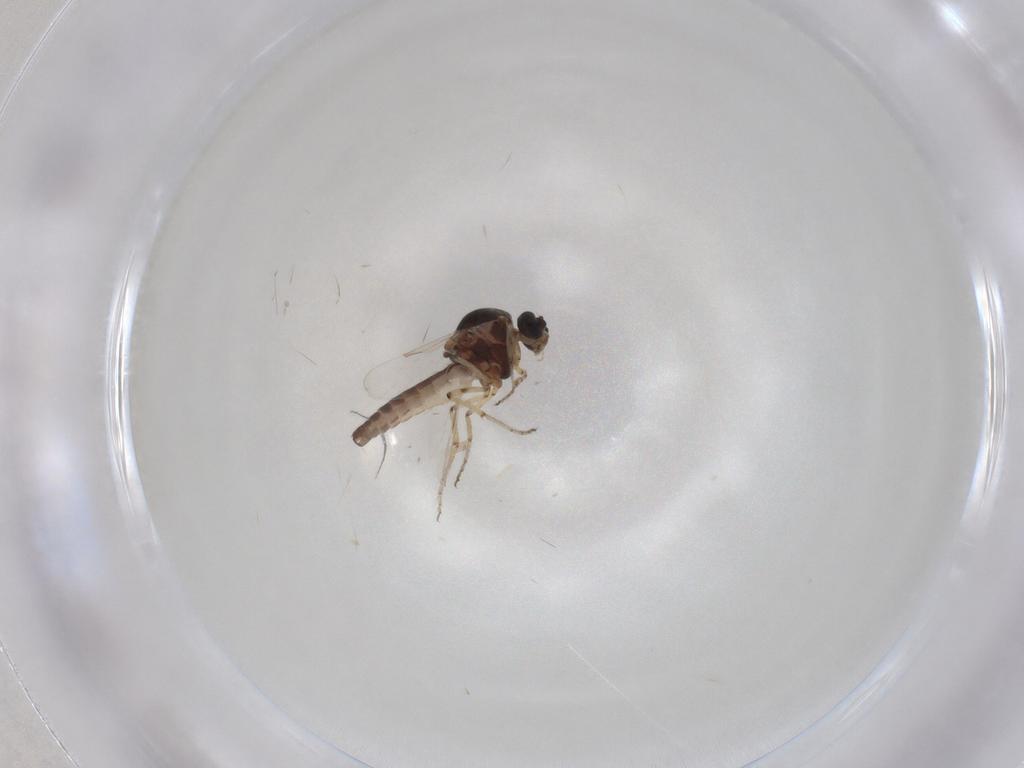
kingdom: Animalia
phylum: Arthropoda
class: Insecta
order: Diptera
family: Ceratopogonidae
